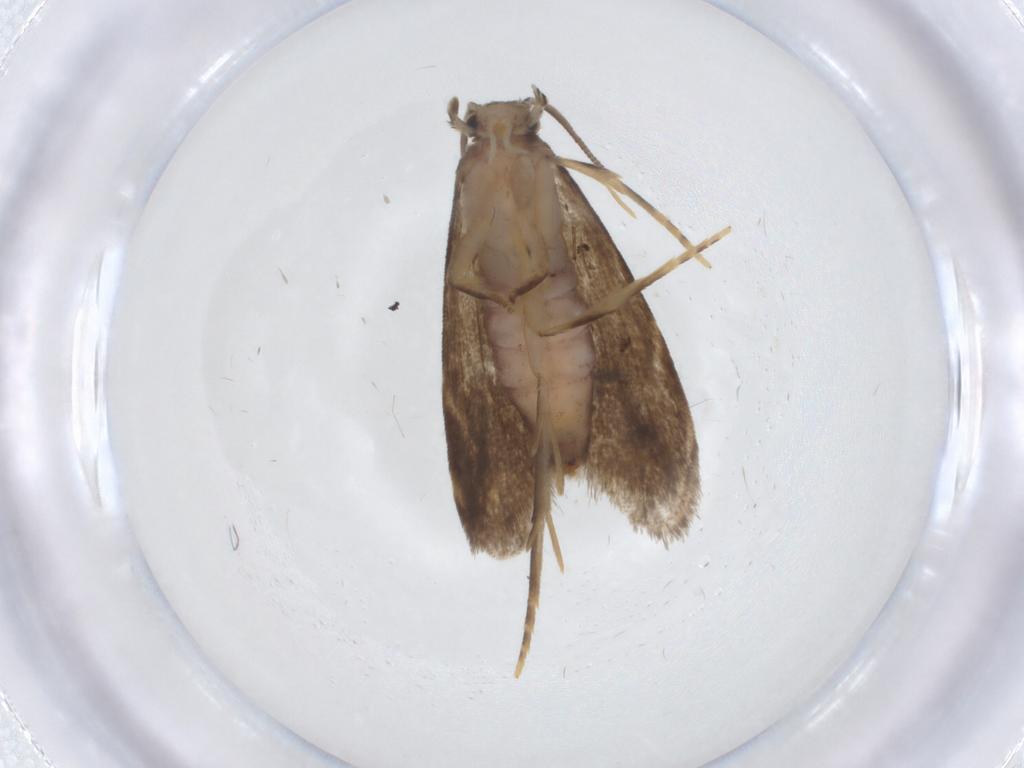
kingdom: Animalia
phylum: Arthropoda
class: Insecta
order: Lepidoptera
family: Dryadaulidae
